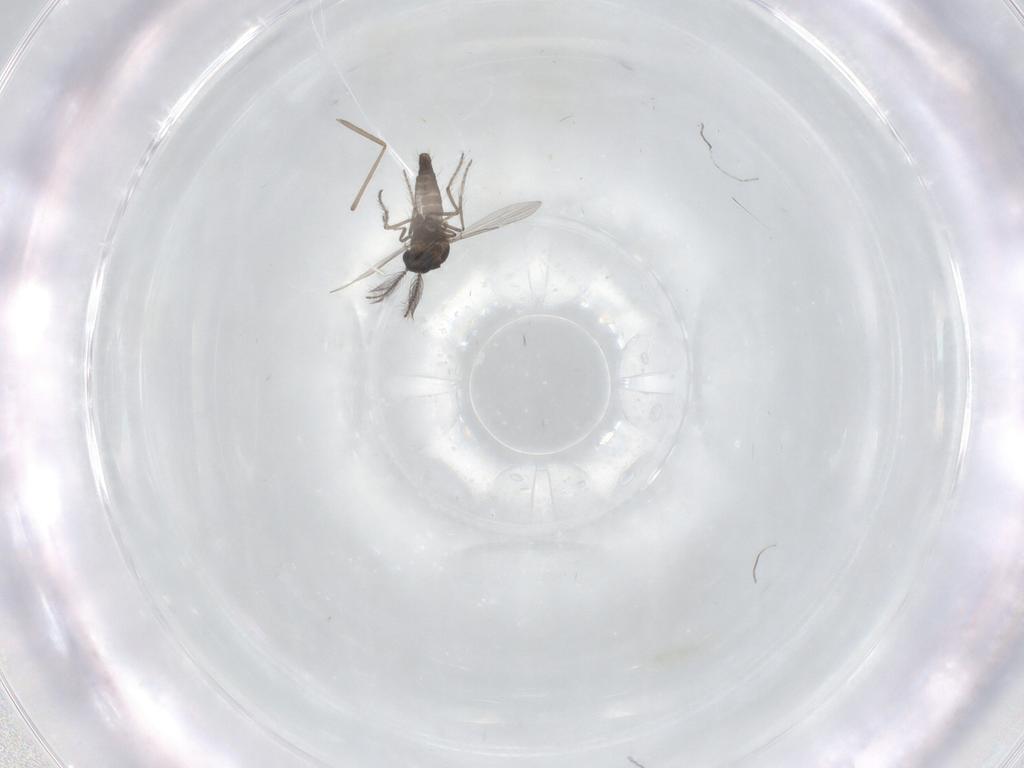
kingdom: Animalia
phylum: Arthropoda
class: Insecta
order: Diptera
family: Ceratopogonidae
